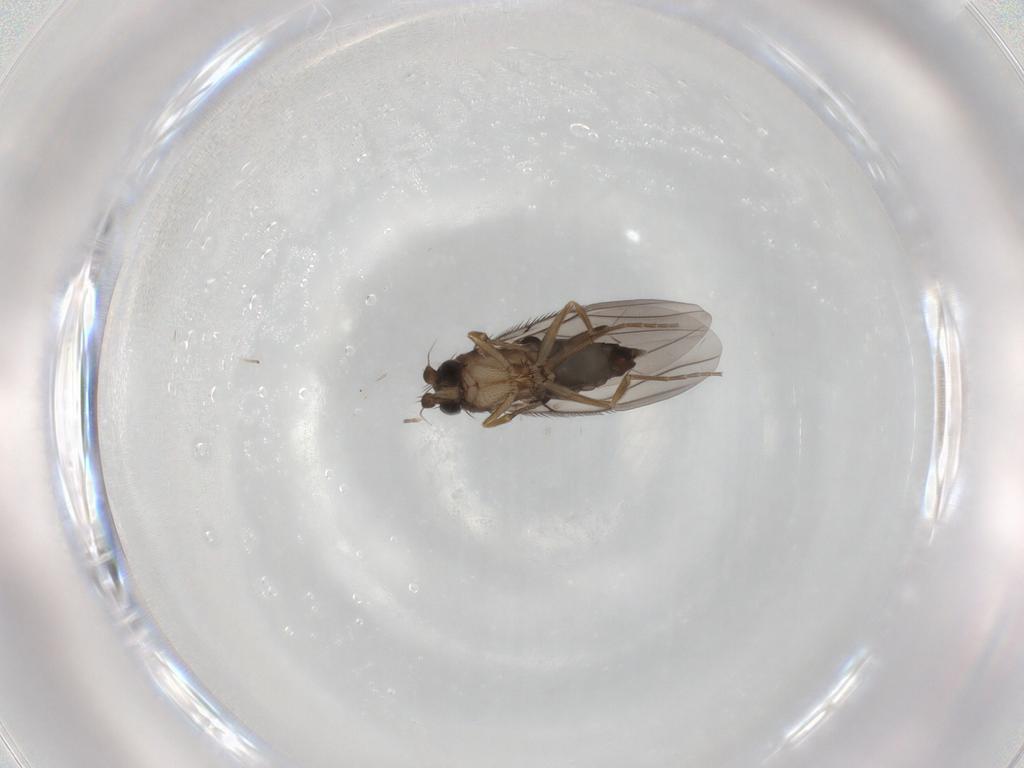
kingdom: Animalia
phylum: Arthropoda
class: Insecta
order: Diptera
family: Phoridae
